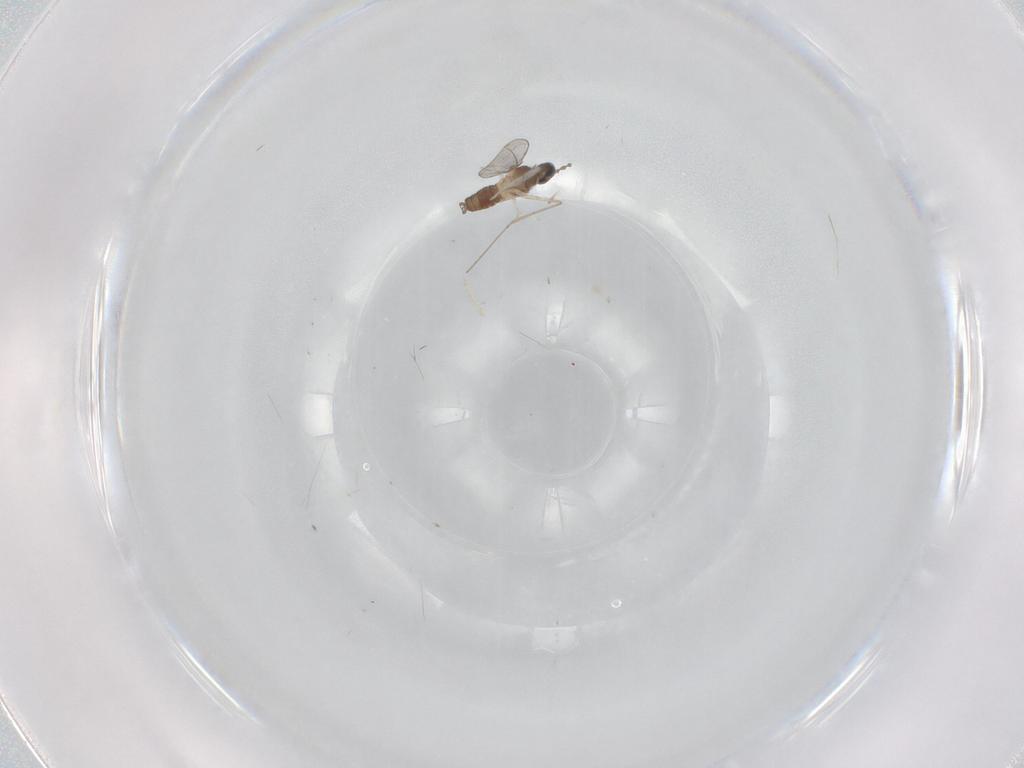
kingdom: Animalia
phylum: Arthropoda
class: Insecta
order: Diptera
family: Cecidomyiidae
